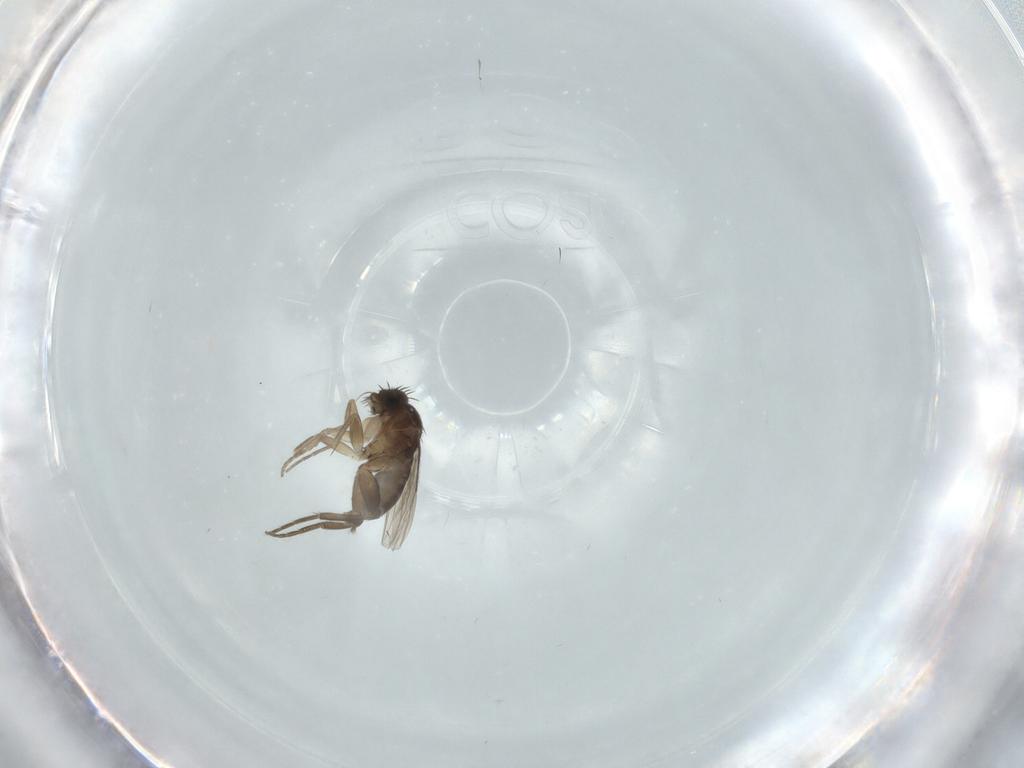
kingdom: Animalia
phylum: Arthropoda
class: Insecta
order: Diptera
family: Phoridae
